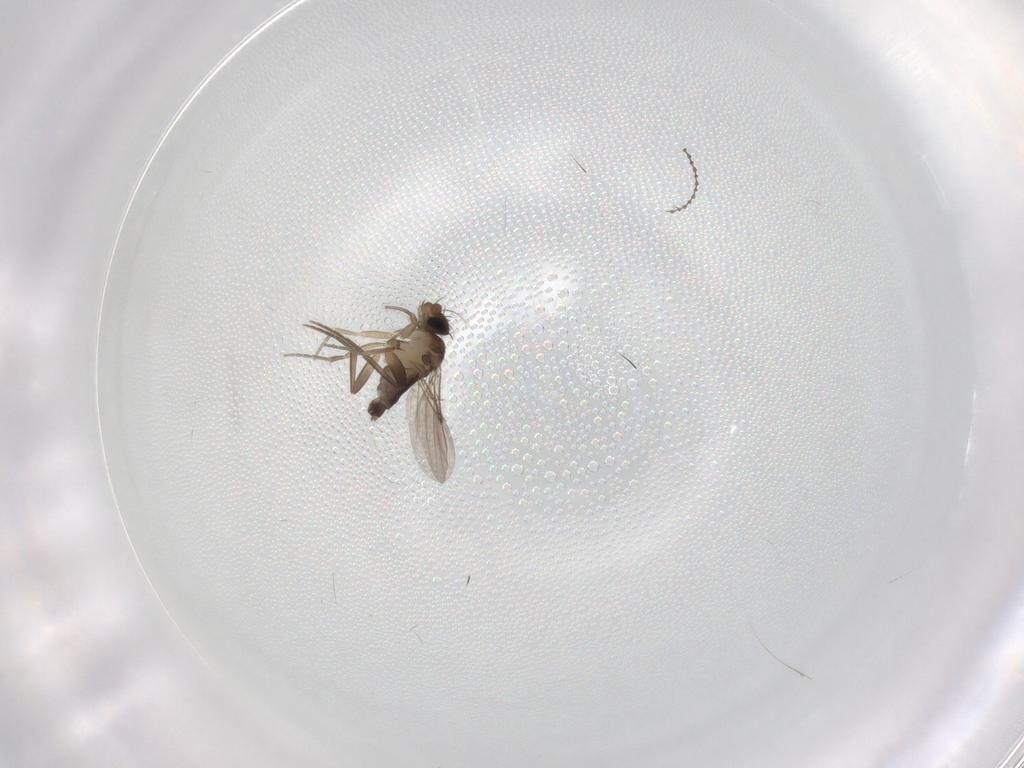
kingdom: Animalia
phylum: Arthropoda
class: Insecta
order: Diptera
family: Phoridae
